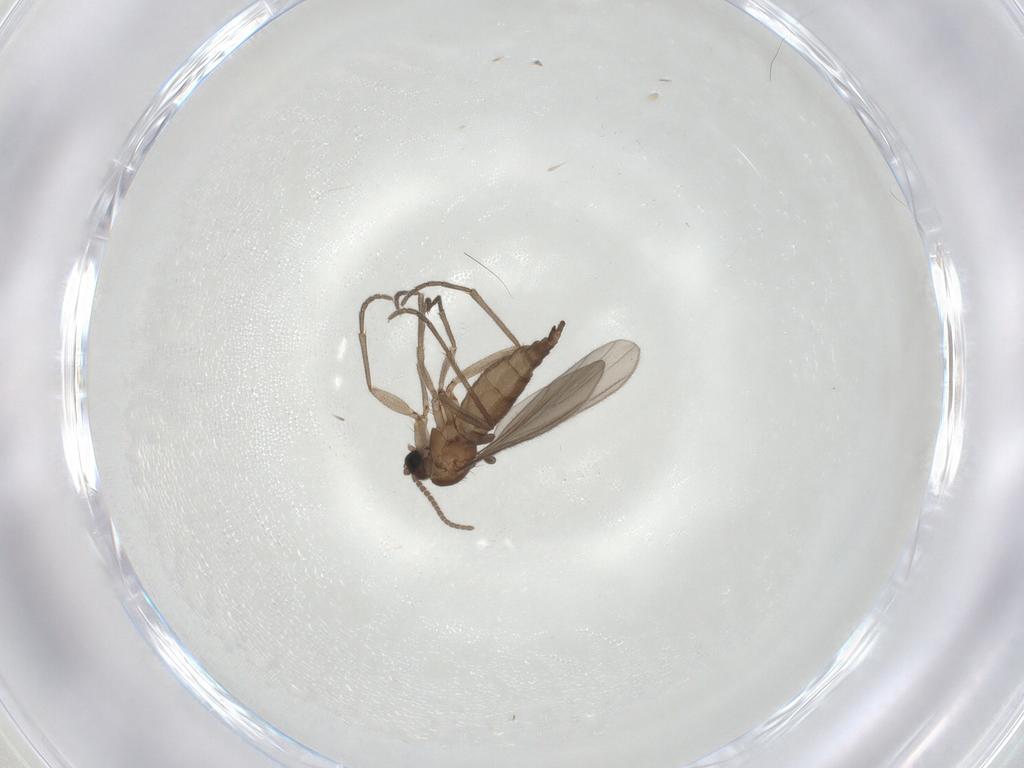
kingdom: Animalia
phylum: Arthropoda
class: Insecta
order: Diptera
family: Sciaridae
